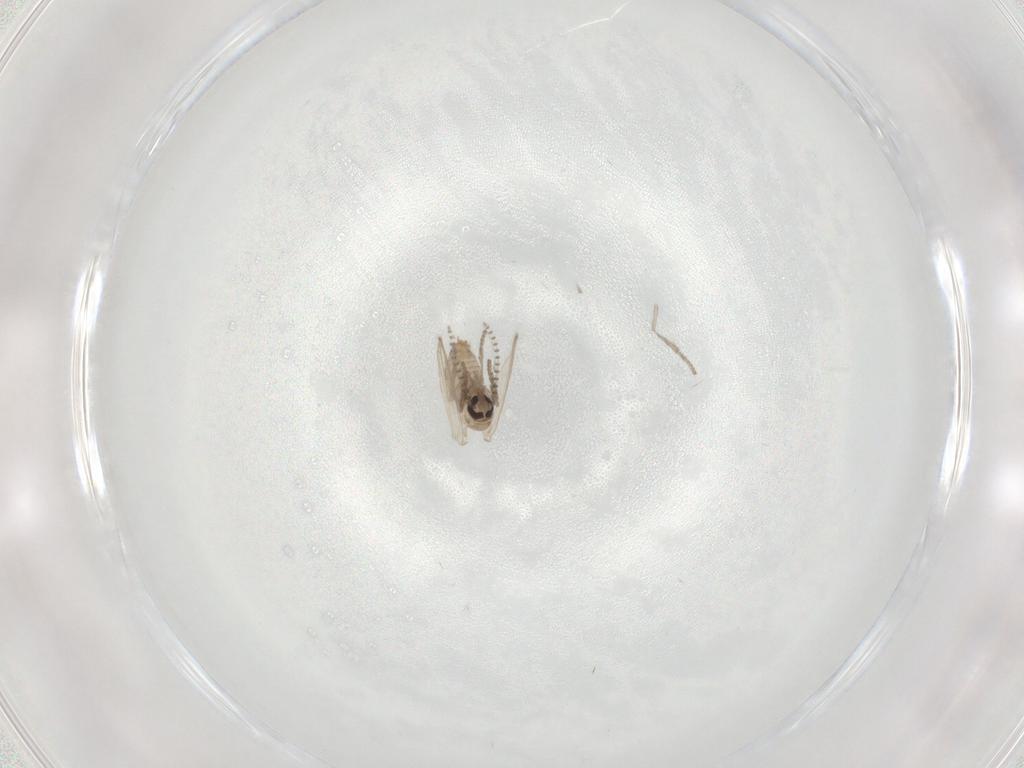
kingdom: Animalia
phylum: Arthropoda
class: Insecta
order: Diptera
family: Psychodidae
